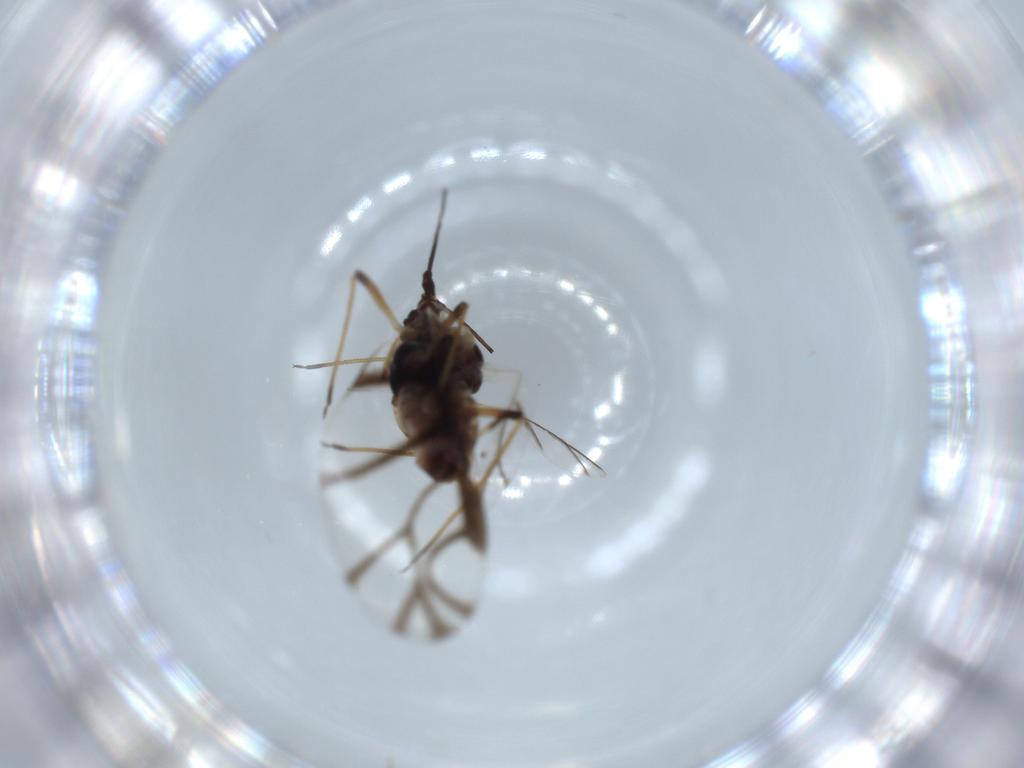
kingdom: Animalia
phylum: Arthropoda
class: Insecta
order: Hemiptera
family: Aphididae
